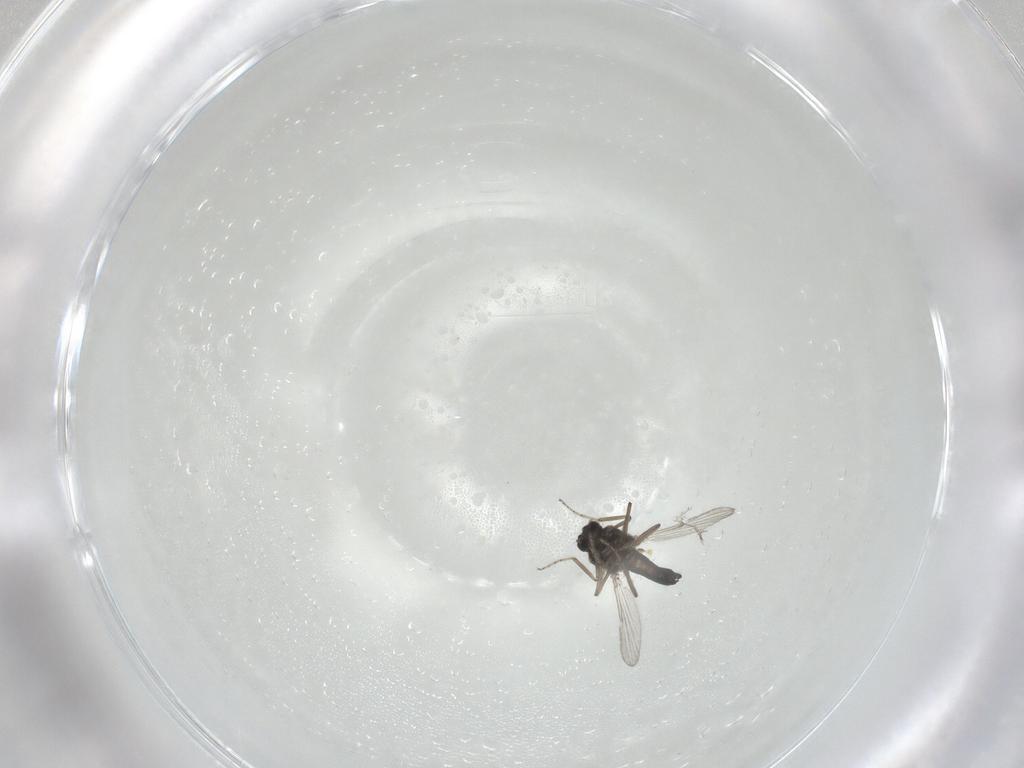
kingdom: Animalia
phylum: Arthropoda
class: Insecta
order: Diptera
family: Ceratopogonidae
